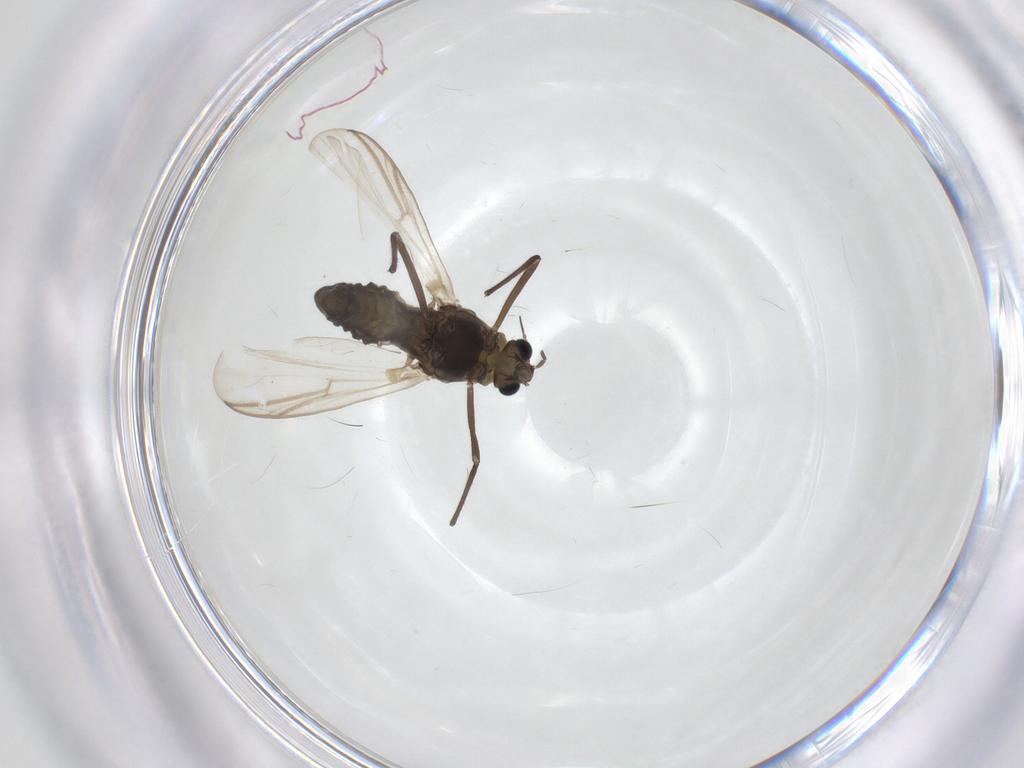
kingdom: Animalia
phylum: Arthropoda
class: Insecta
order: Diptera
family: Chironomidae
